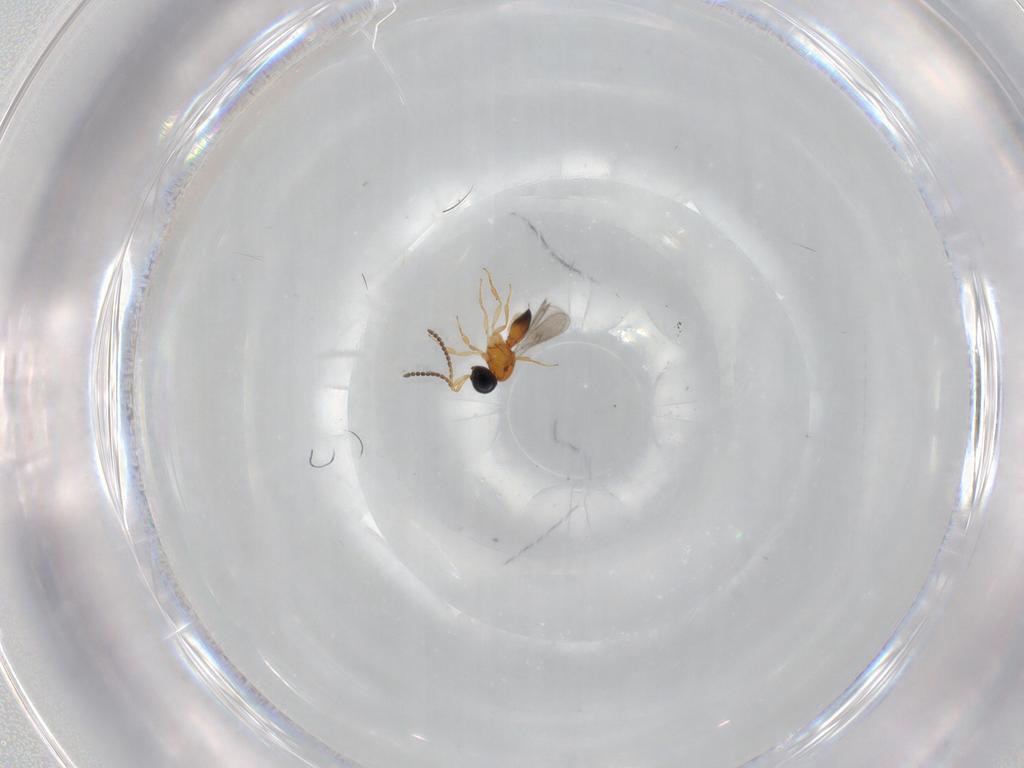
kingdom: Animalia
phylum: Arthropoda
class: Insecta
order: Hymenoptera
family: Scelionidae
